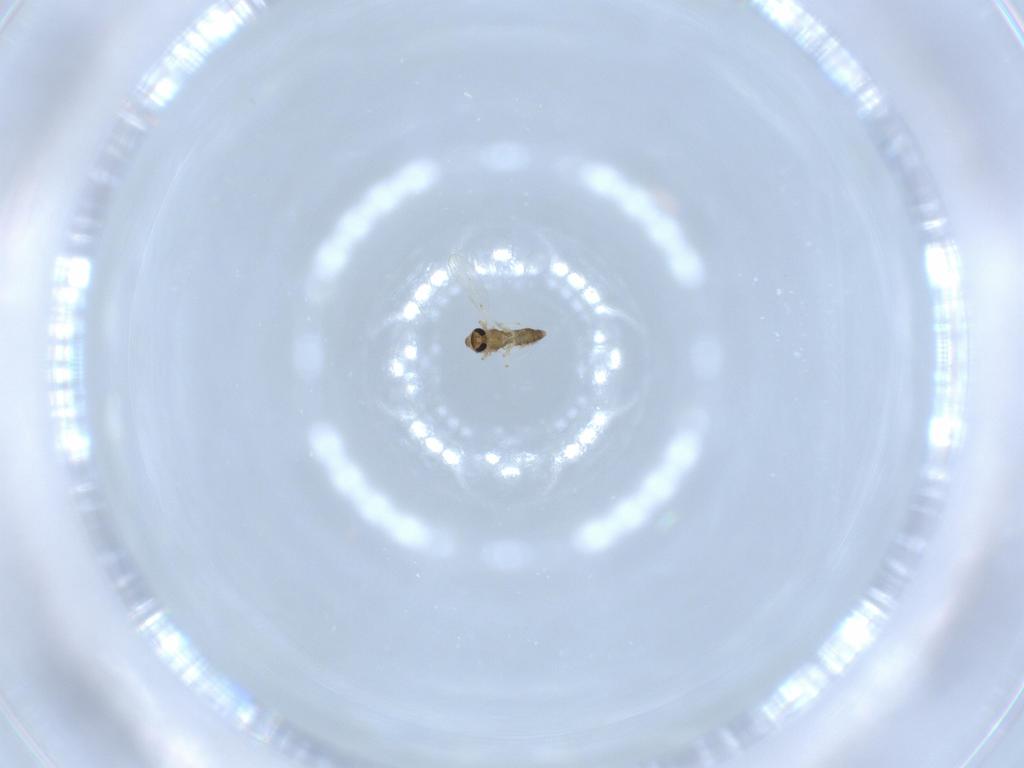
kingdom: Animalia
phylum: Arthropoda
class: Insecta
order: Diptera
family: Chironomidae
